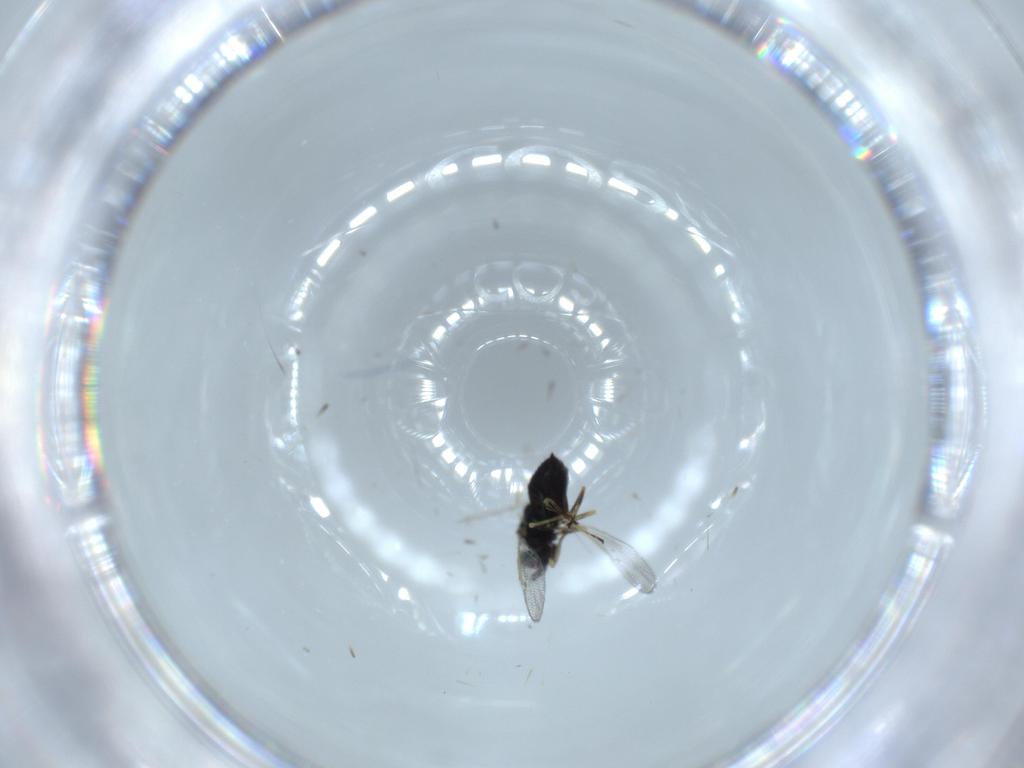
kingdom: Animalia
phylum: Arthropoda
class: Insecta
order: Hymenoptera
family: Eulophidae
